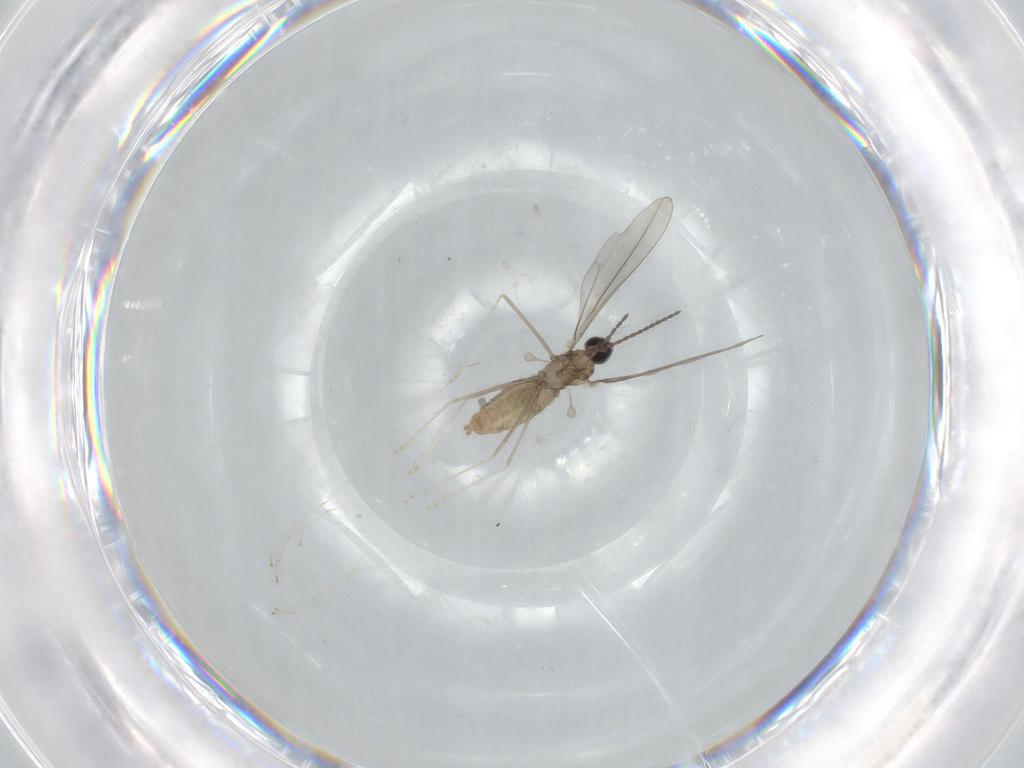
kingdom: Animalia
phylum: Arthropoda
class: Insecta
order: Diptera
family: Cecidomyiidae
